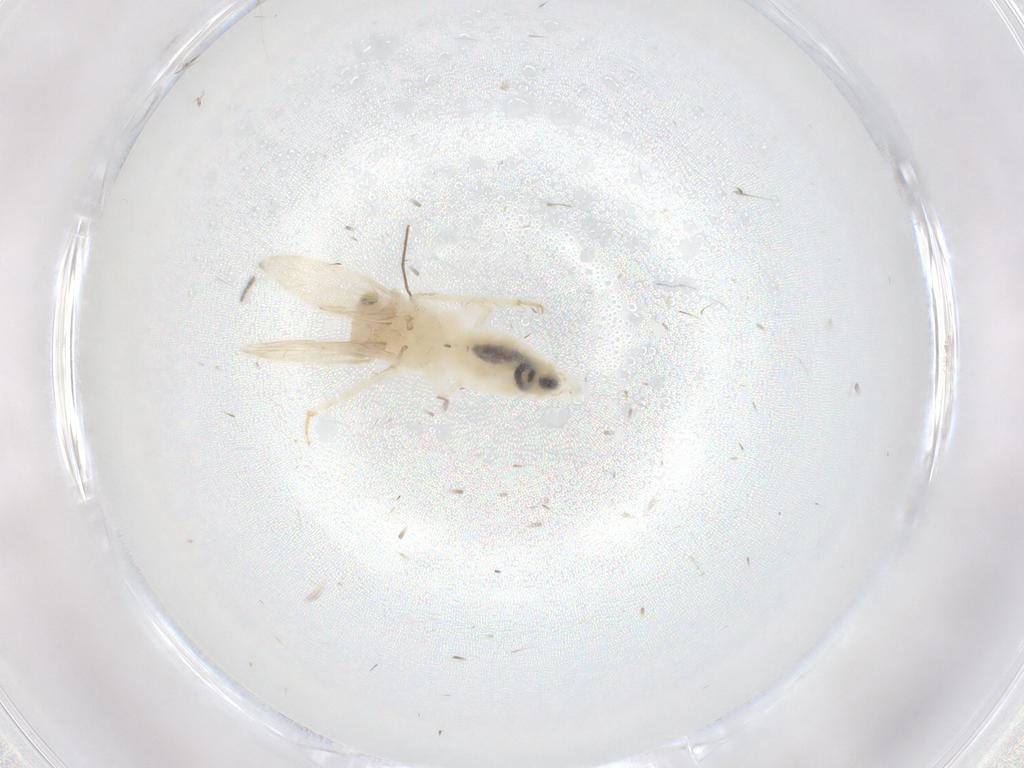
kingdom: Animalia
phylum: Arthropoda
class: Insecta
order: Psocodea
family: Lepidopsocidae
